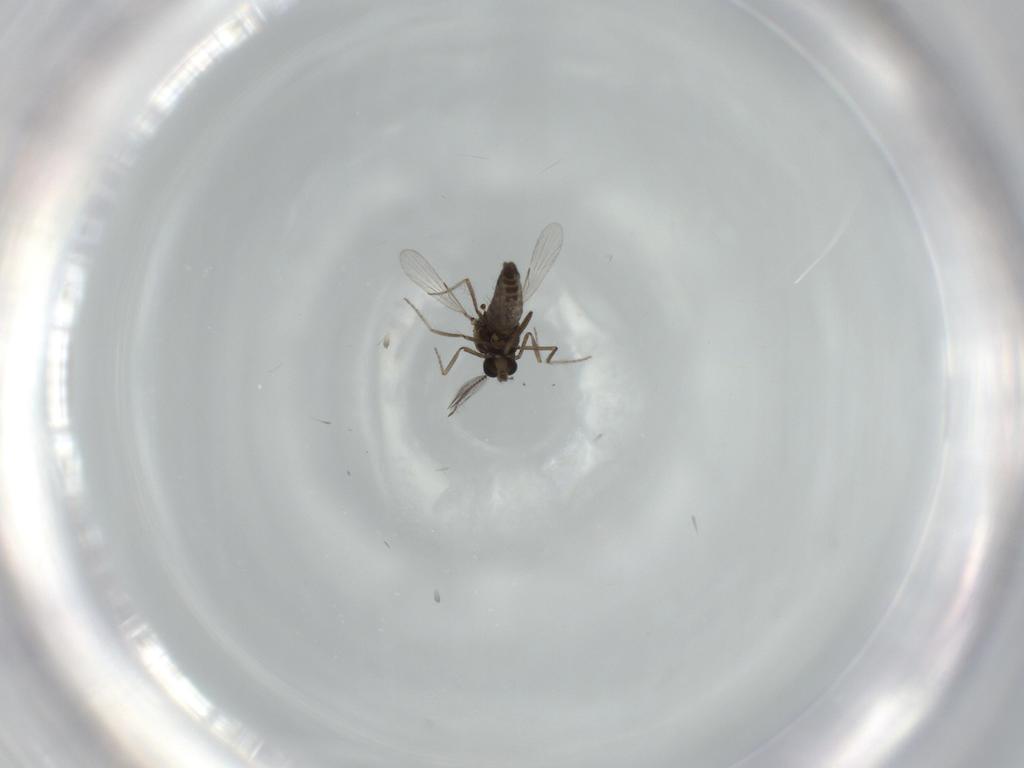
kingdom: Animalia
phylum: Arthropoda
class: Insecta
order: Diptera
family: Ceratopogonidae
